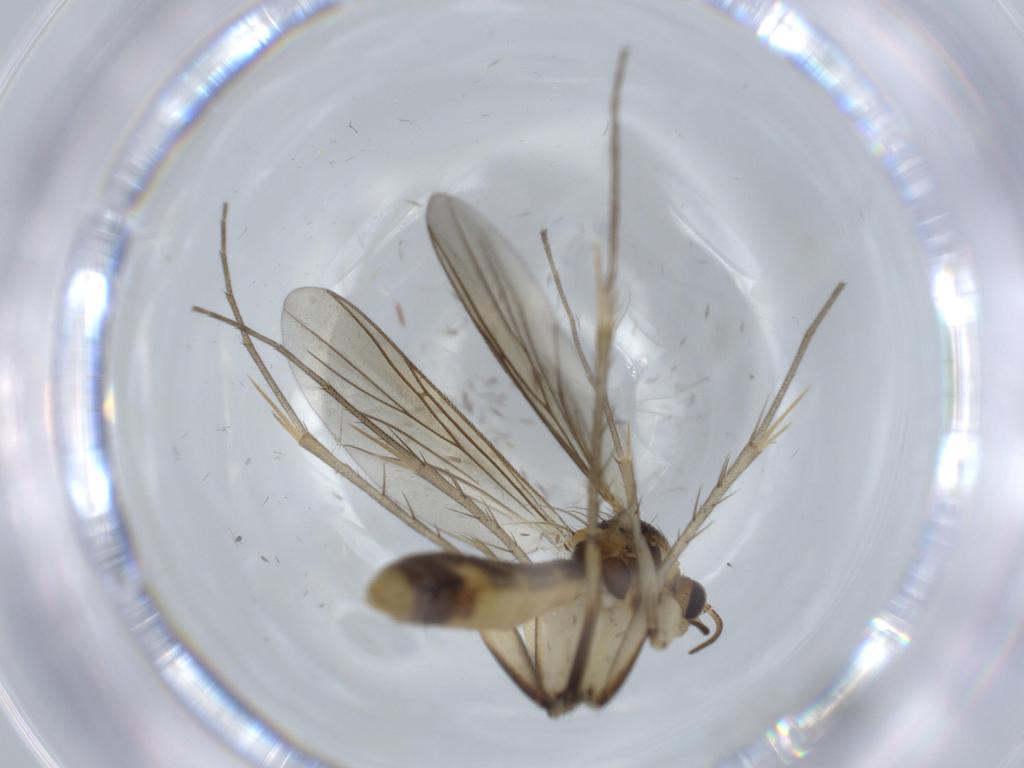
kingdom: Animalia
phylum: Arthropoda
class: Insecta
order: Diptera
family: Mycetophilidae
